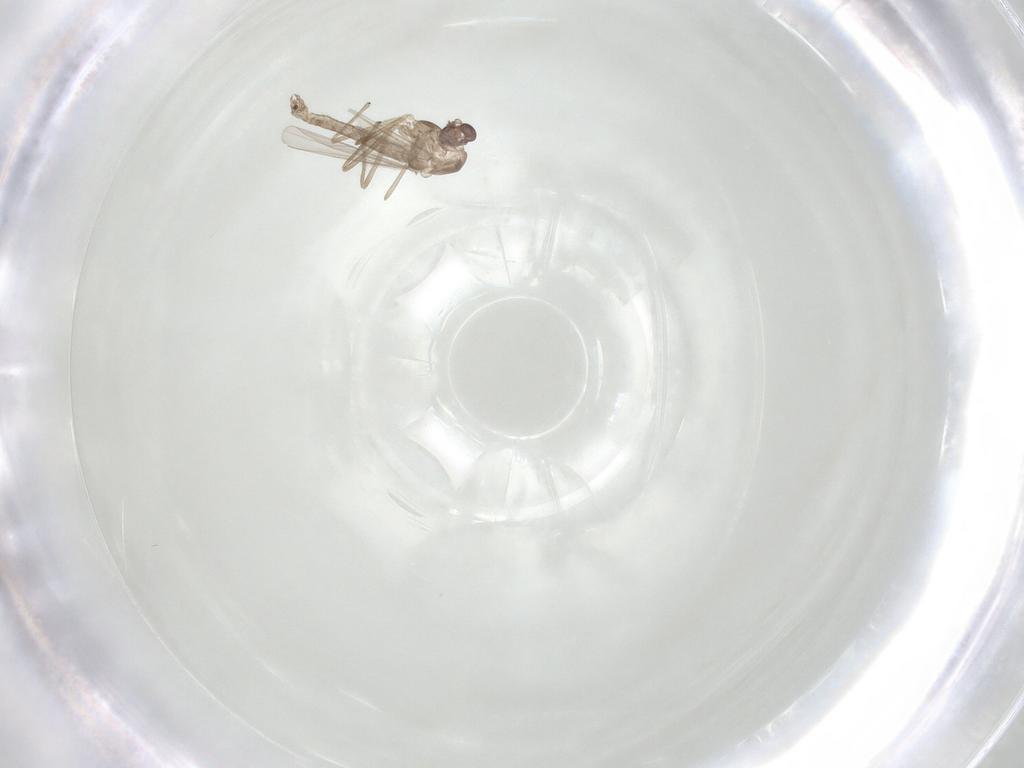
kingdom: Animalia
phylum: Arthropoda
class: Insecta
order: Diptera
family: Chironomidae
